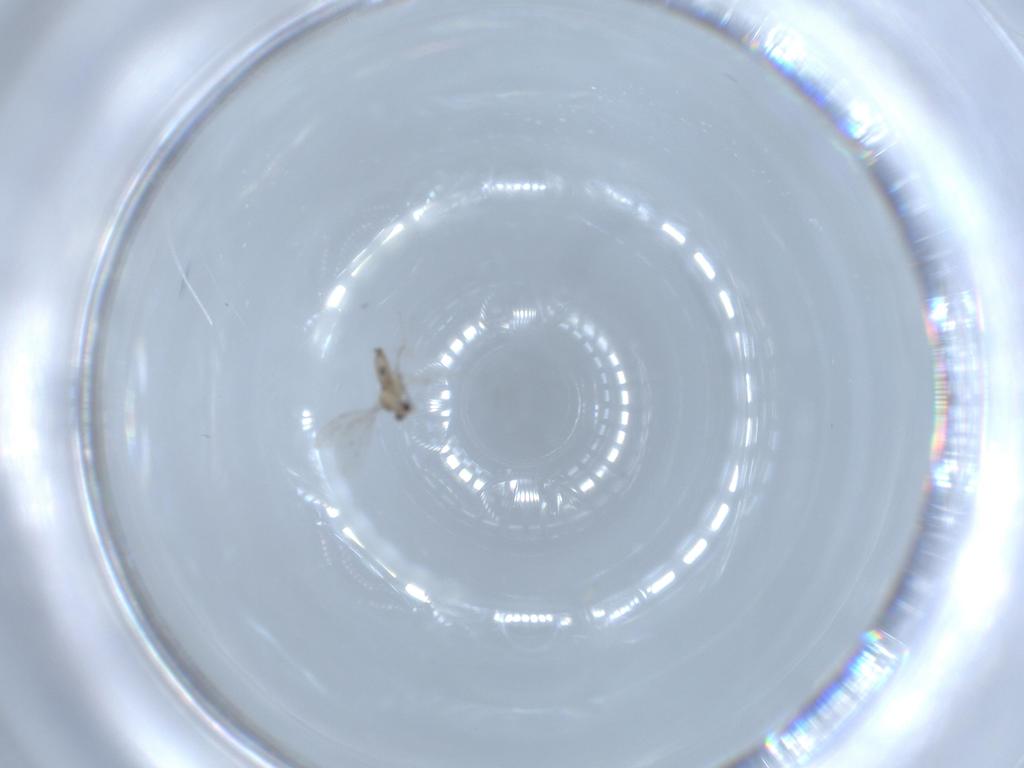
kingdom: Animalia
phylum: Arthropoda
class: Insecta
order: Diptera
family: Cecidomyiidae
